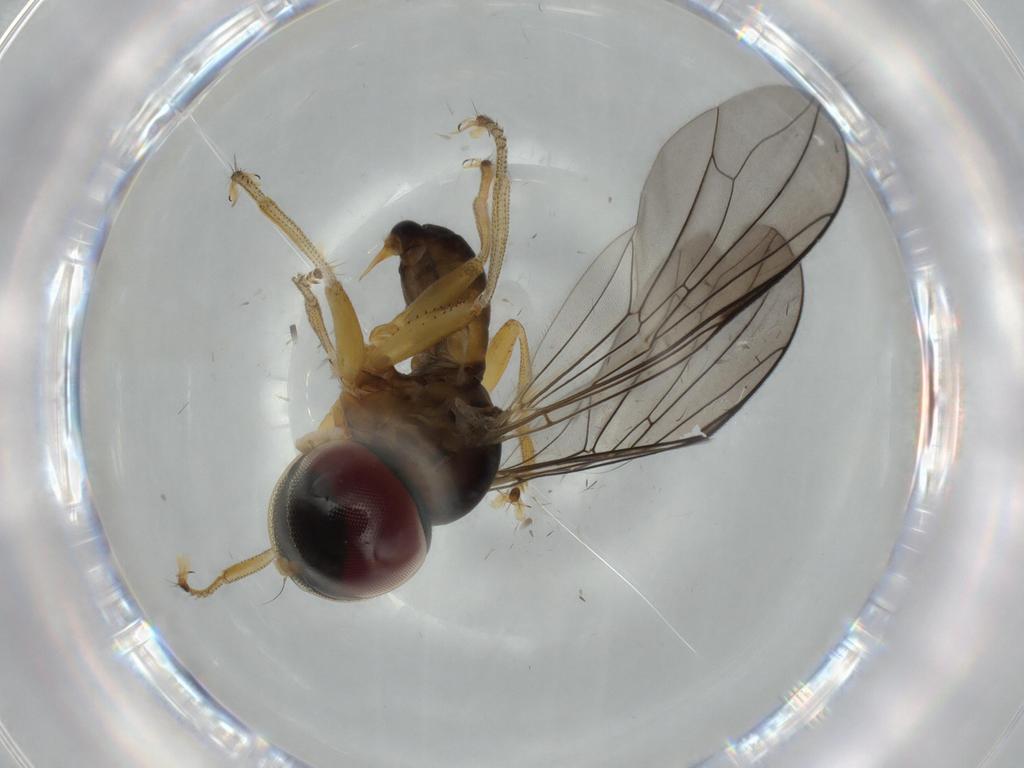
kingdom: Animalia
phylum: Arthropoda
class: Insecta
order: Diptera
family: Pipunculidae
